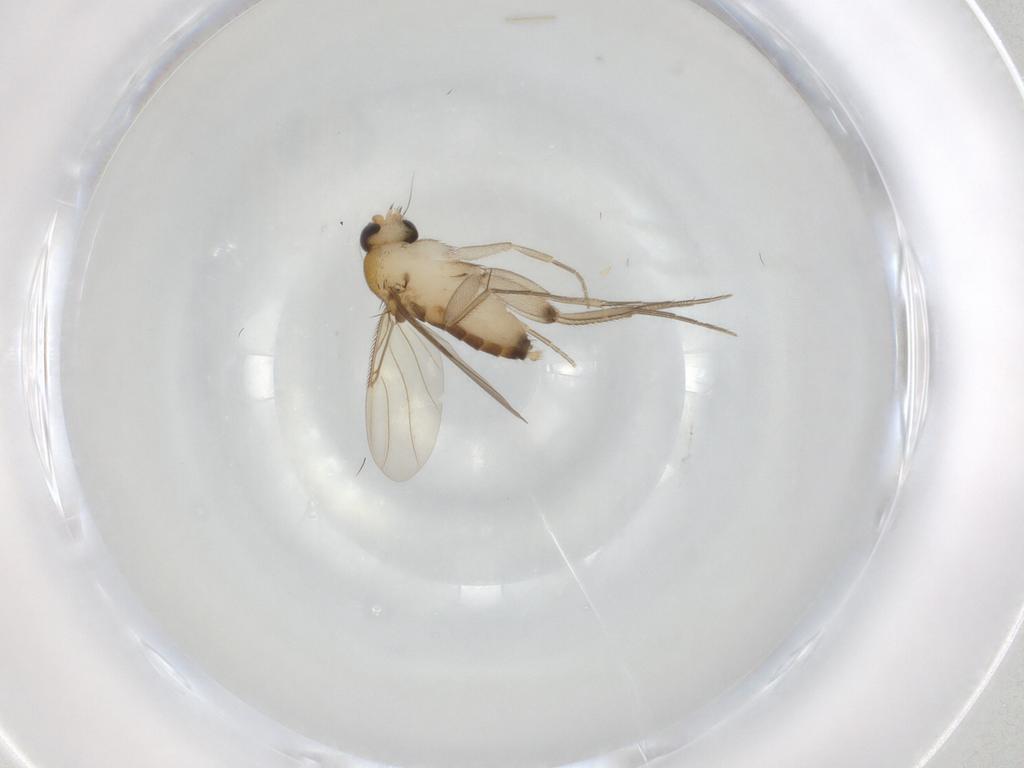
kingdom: Animalia
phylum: Arthropoda
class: Insecta
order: Diptera
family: Phoridae
